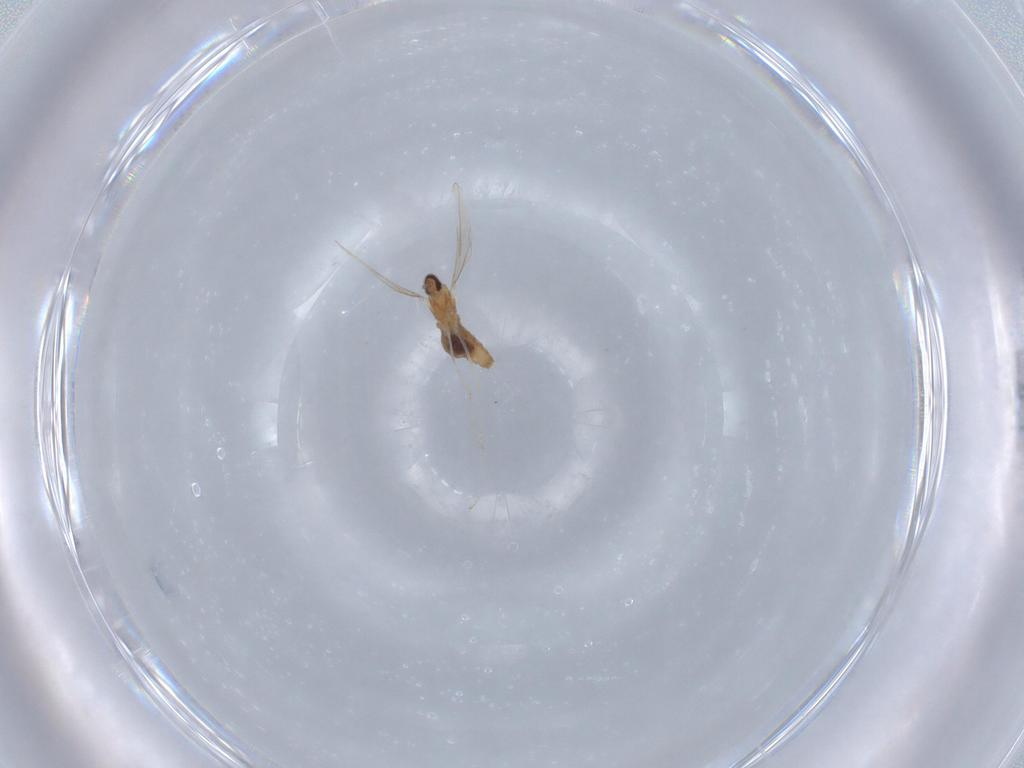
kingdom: Animalia
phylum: Arthropoda
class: Insecta
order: Diptera
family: Cecidomyiidae
